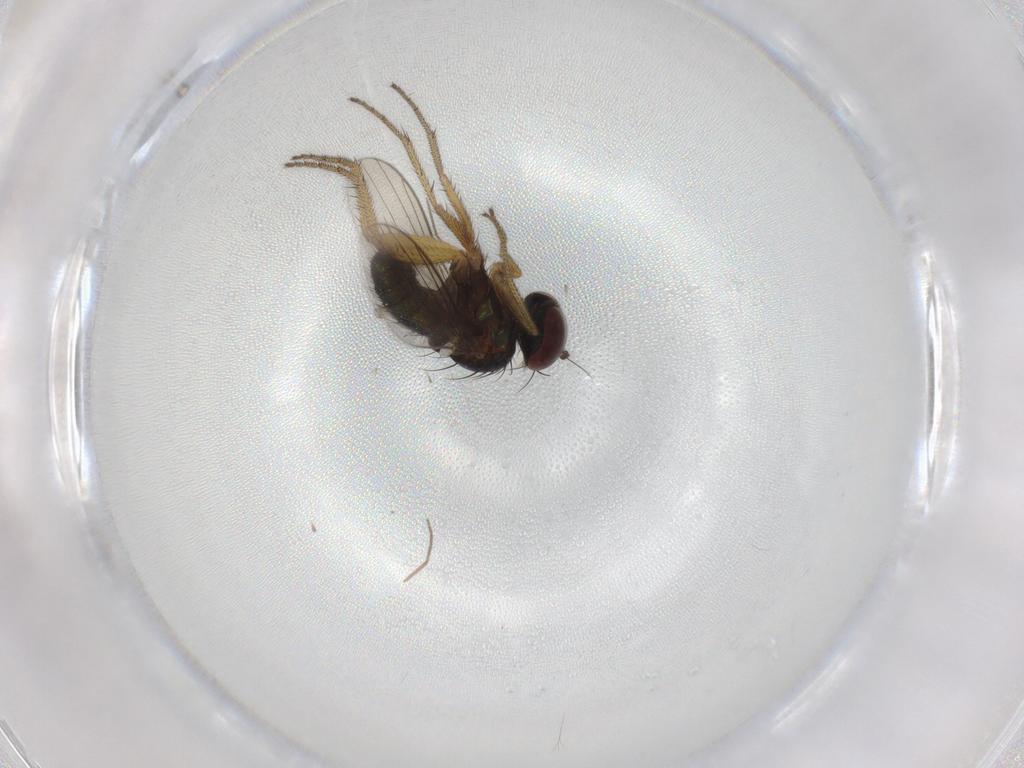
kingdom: Animalia
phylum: Arthropoda
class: Insecta
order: Diptera
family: Dolichopodidae
